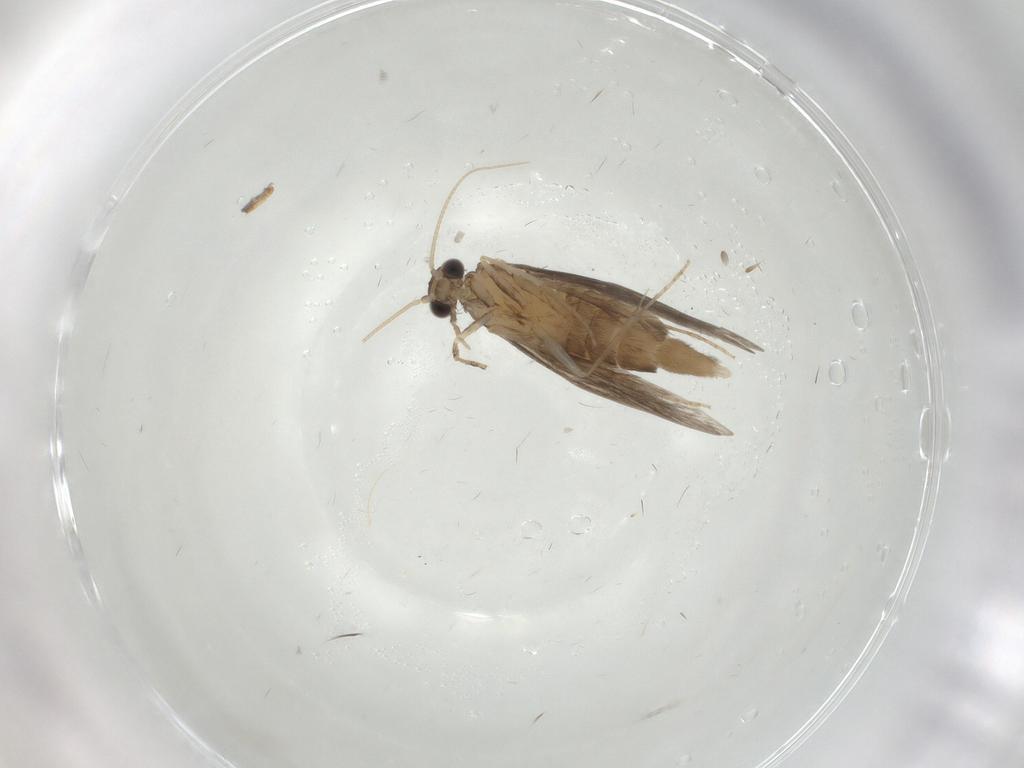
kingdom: Animalia
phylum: Arthropoda
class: Insecta
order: Trichoptera
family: Hydroptilidae
